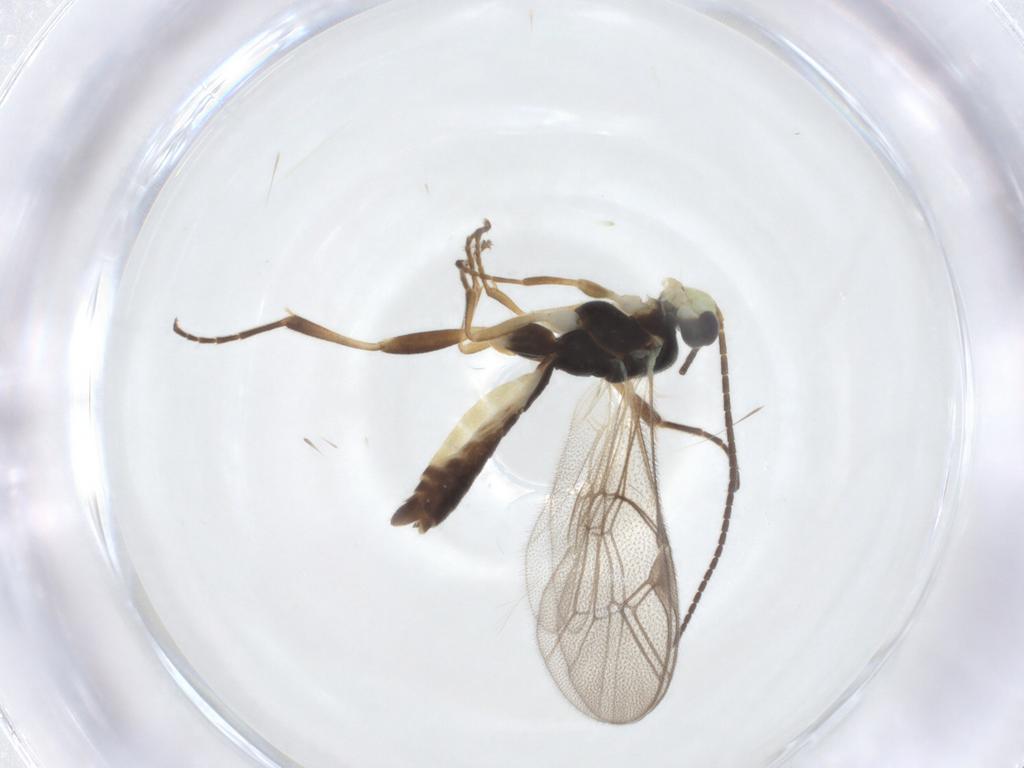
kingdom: Animalia
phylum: Arthropoda
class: Insecta
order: Hymenoptera
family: Ichneumonidae
